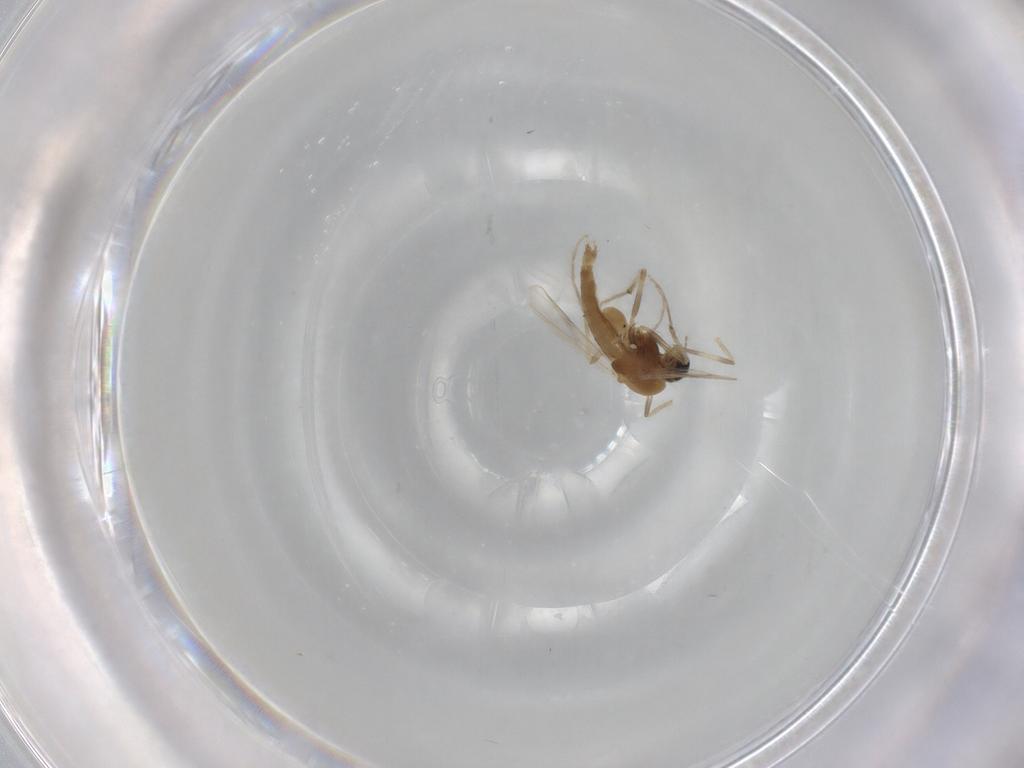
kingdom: Animalia
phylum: Arthropoda
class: Insecta
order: Diptera
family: Chironomidae
